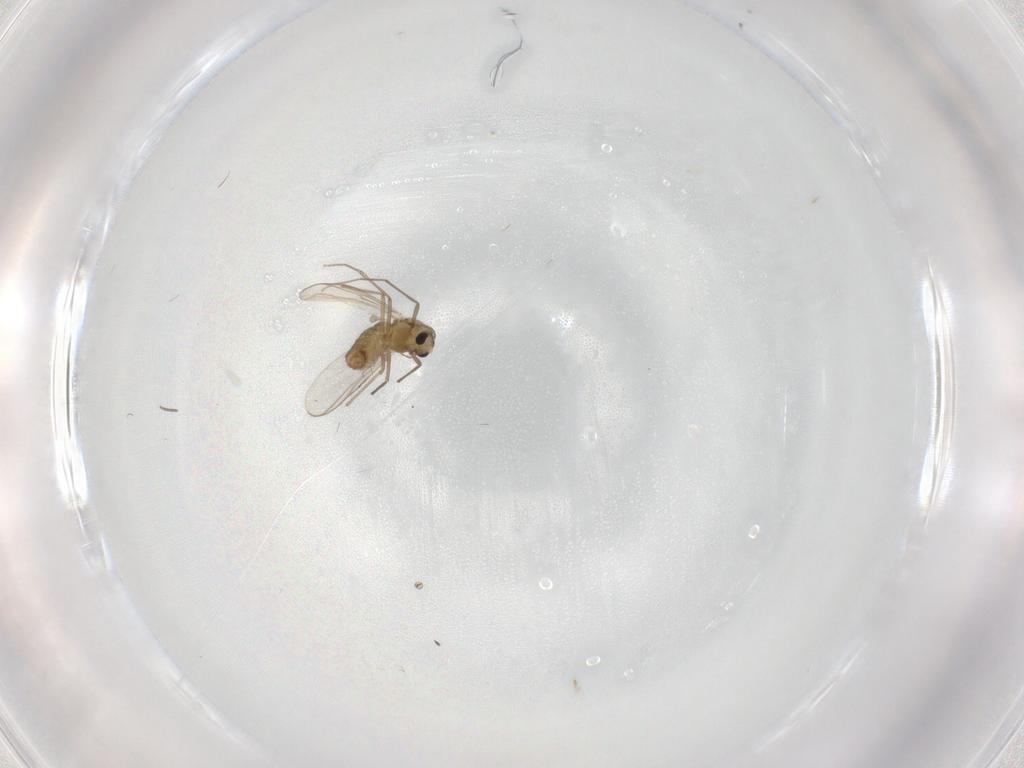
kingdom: Animalia
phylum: Arthropoda
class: Insecta
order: Diptera
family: Chironomidae
